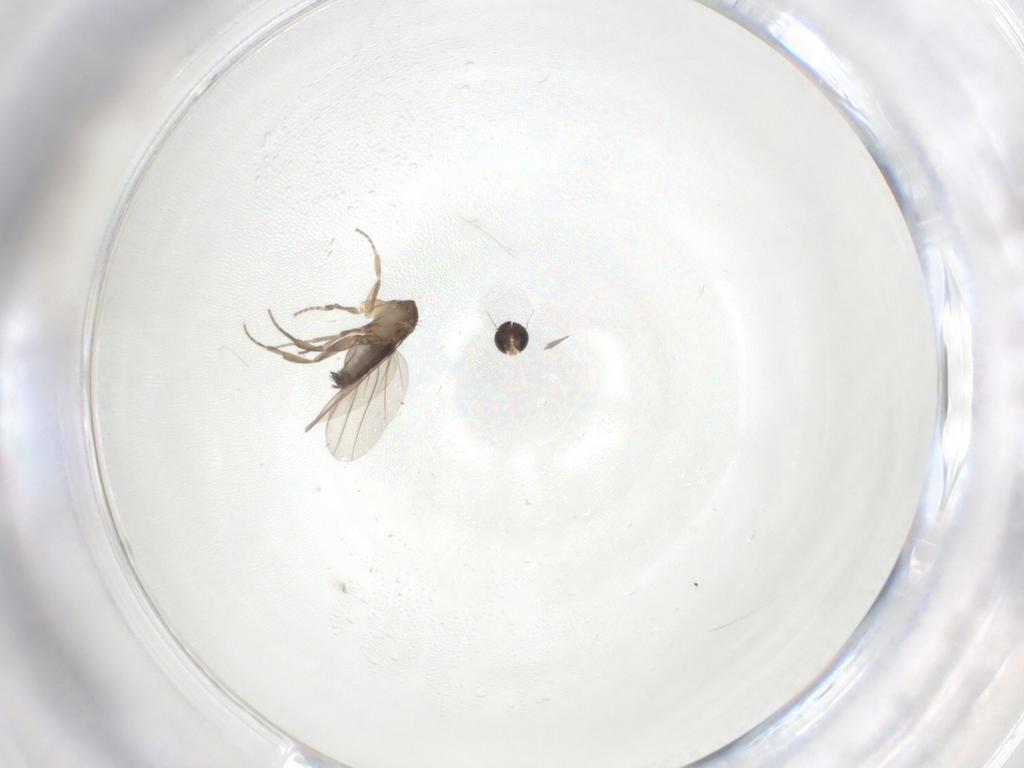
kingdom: Animalia
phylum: Arthropoda
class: Insecta
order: Diptera
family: Phoridae
